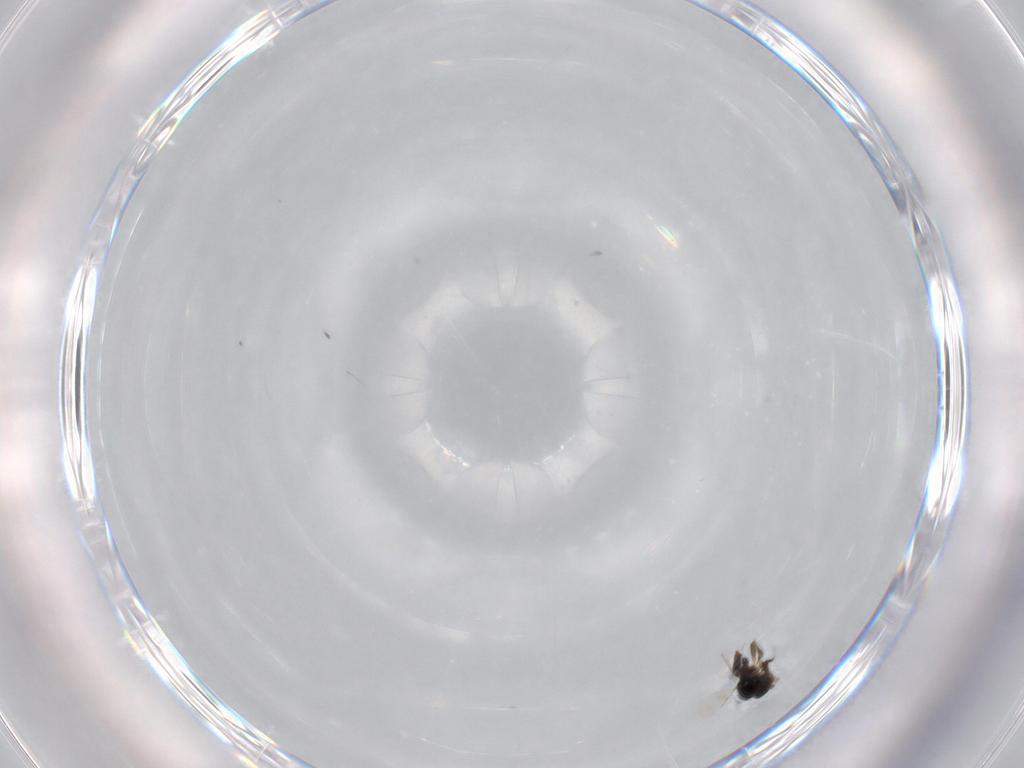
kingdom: Animalia
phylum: Arthropoda
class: Insecta
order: Hymenoptera
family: Ceraphronidae
